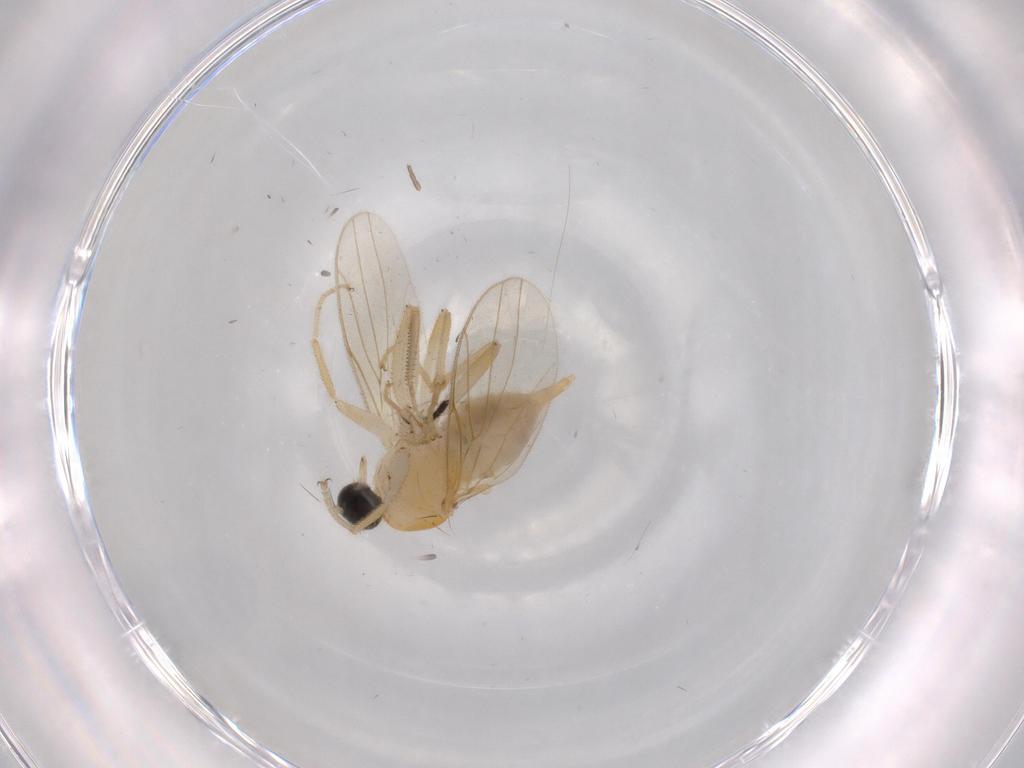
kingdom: Animalia
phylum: Arthropoda
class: Insecta
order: Diptera
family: Sciaridae
